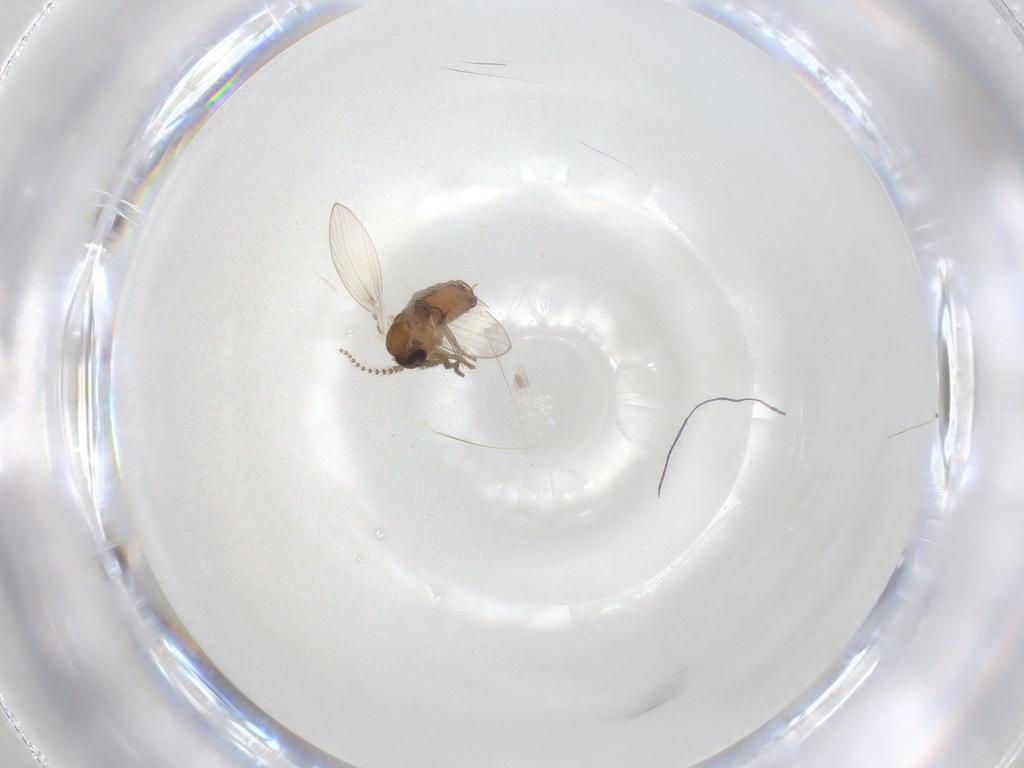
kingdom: Animalia
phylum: Arthropoda
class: Insecta
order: Diptera
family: Psychodidae
